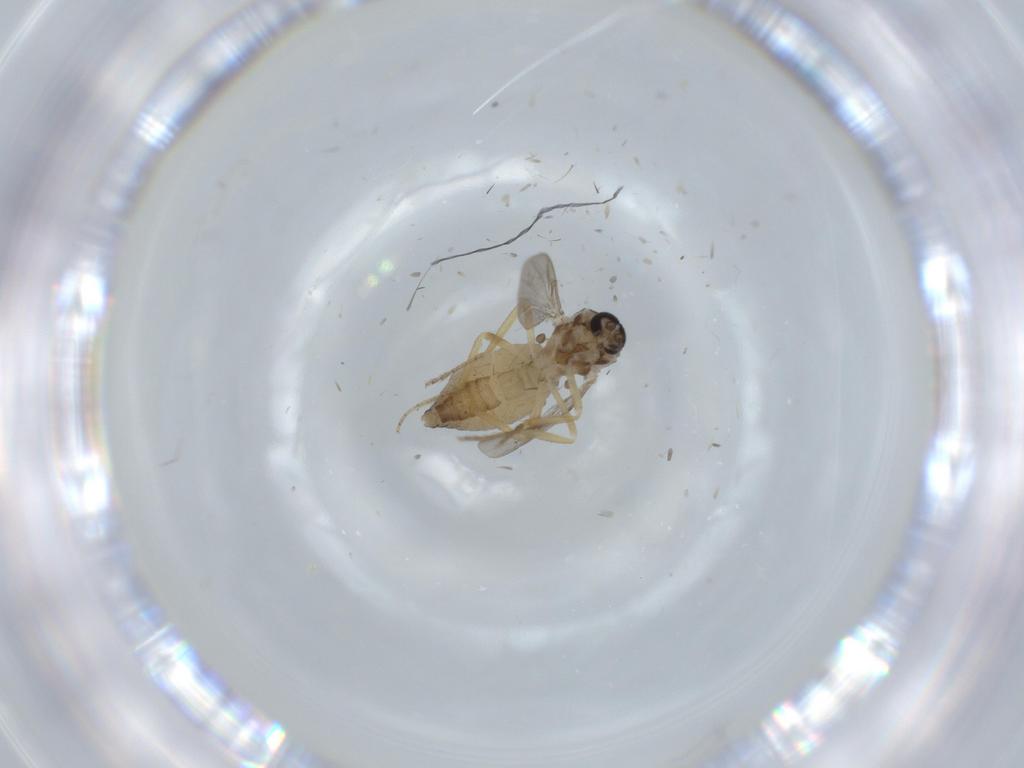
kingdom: Animalia
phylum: Arthropoda
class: Insecta
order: Diptera
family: Ceratopogonidae
